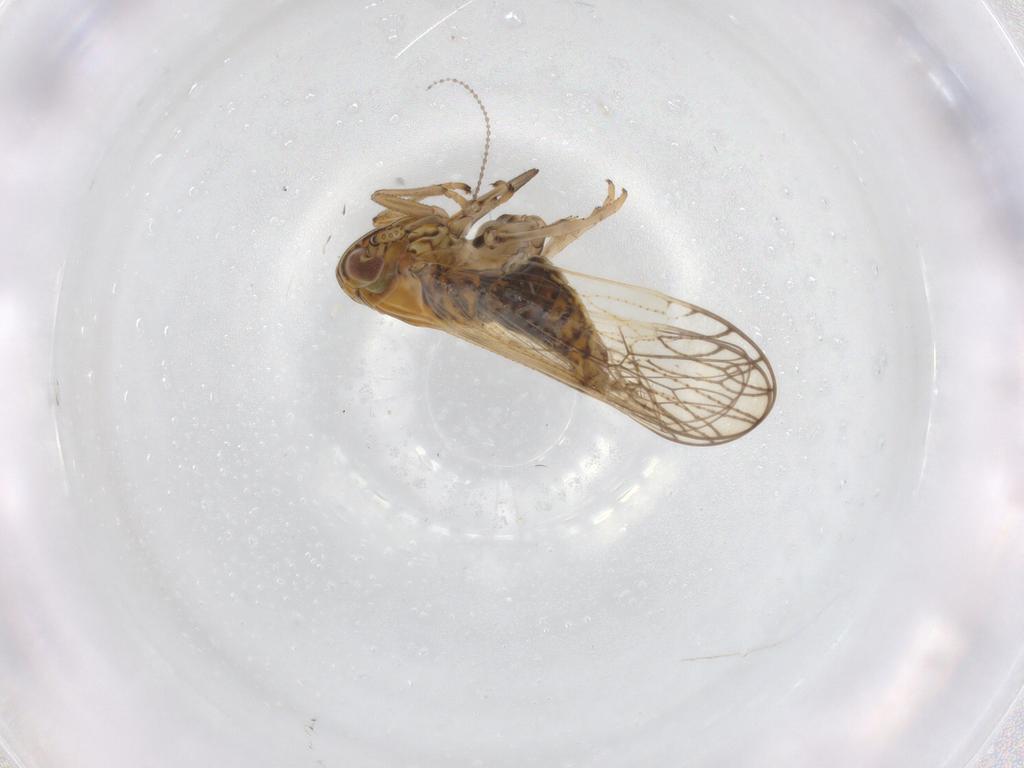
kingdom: Animalia
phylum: Arthropoda
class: Insecta
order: Hemiptera
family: Delphacidae
